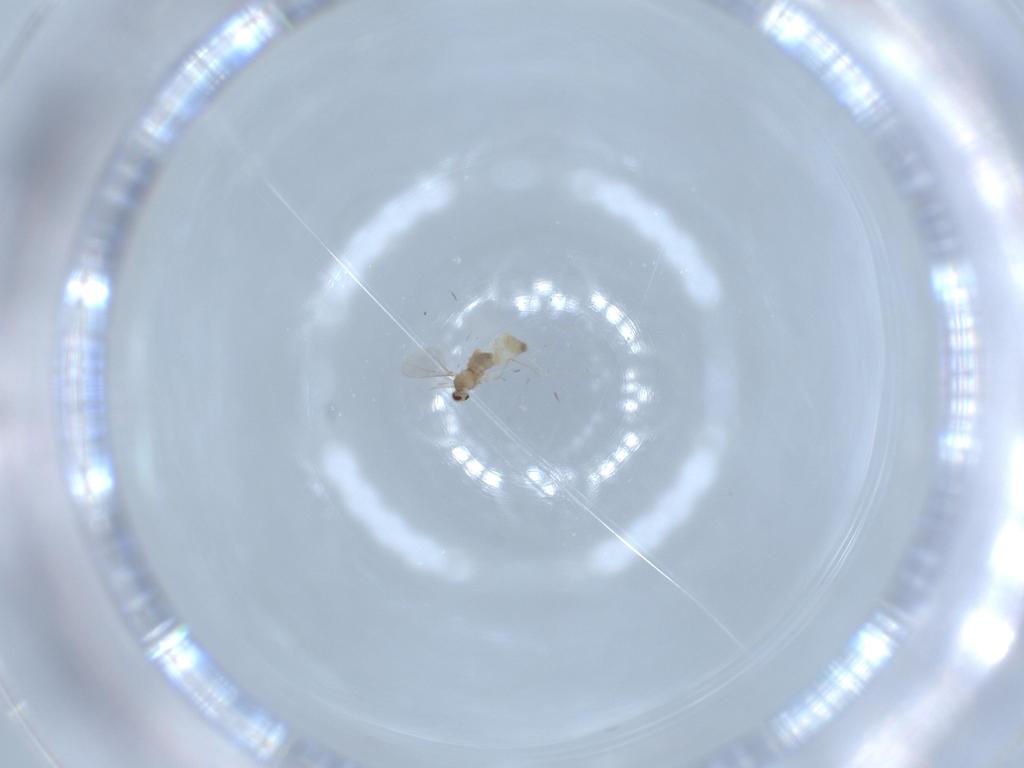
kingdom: Animalia
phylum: Arthropoda
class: Insecta
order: Diptera
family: Cecidomyiidae
